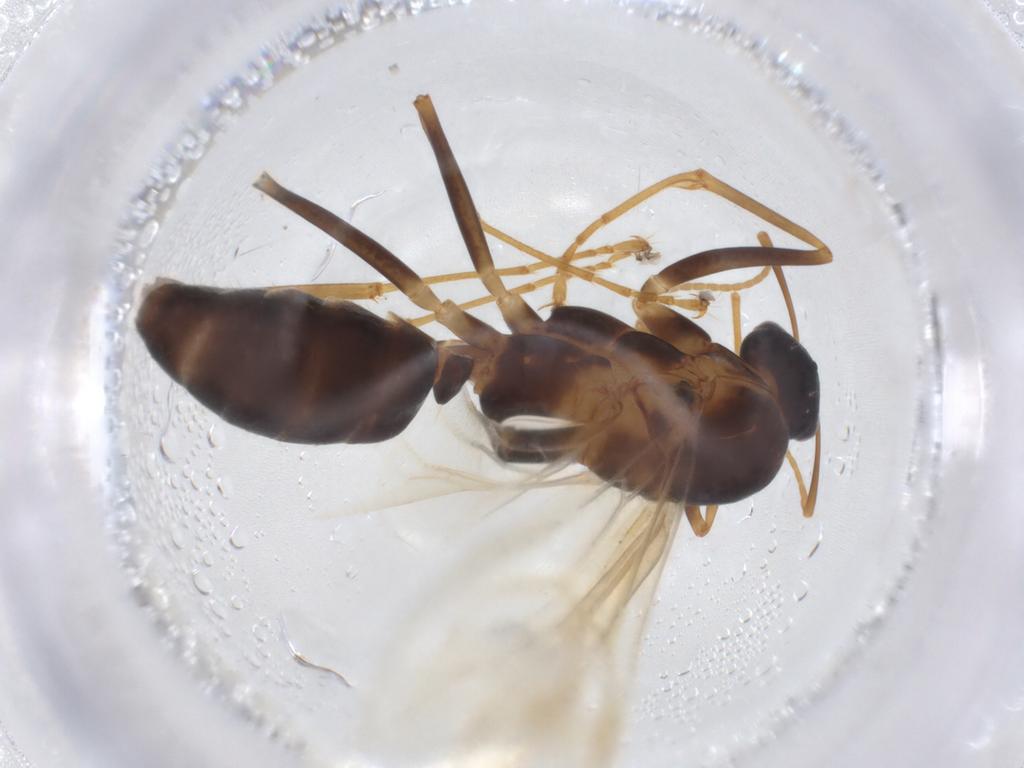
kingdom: Animalia
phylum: Arthropoda
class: Insecta
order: Hymenoptera
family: Formicidae
